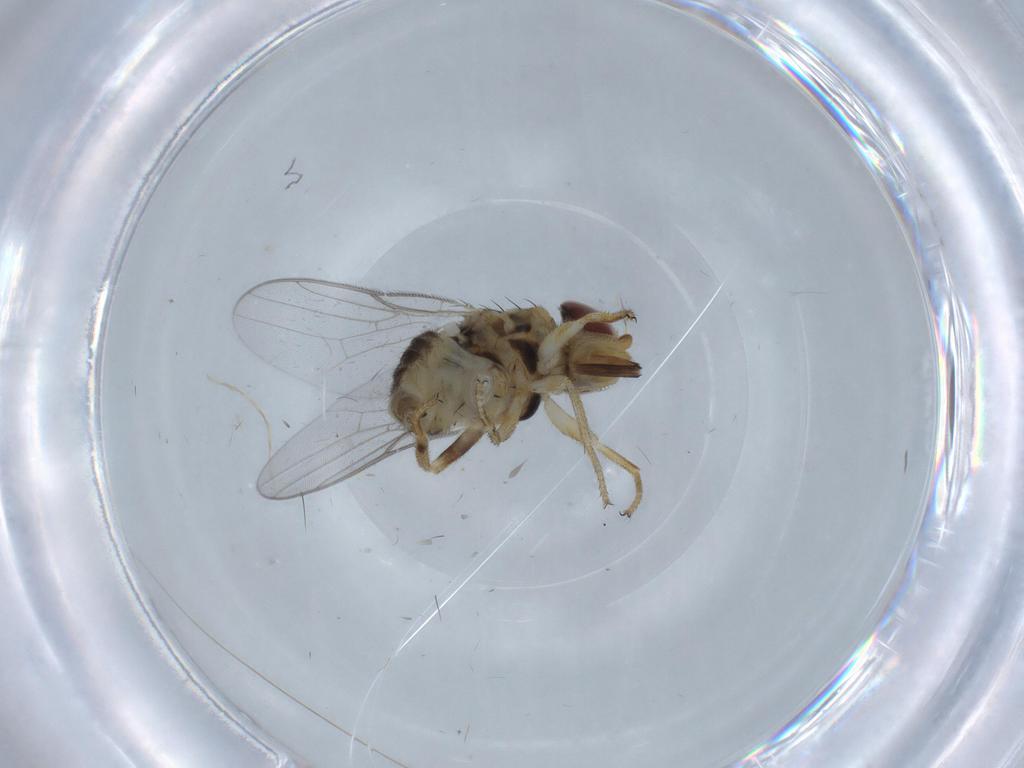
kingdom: Animalia
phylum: Arthropoda
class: Insecta
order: Diptera
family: Chloropidae
